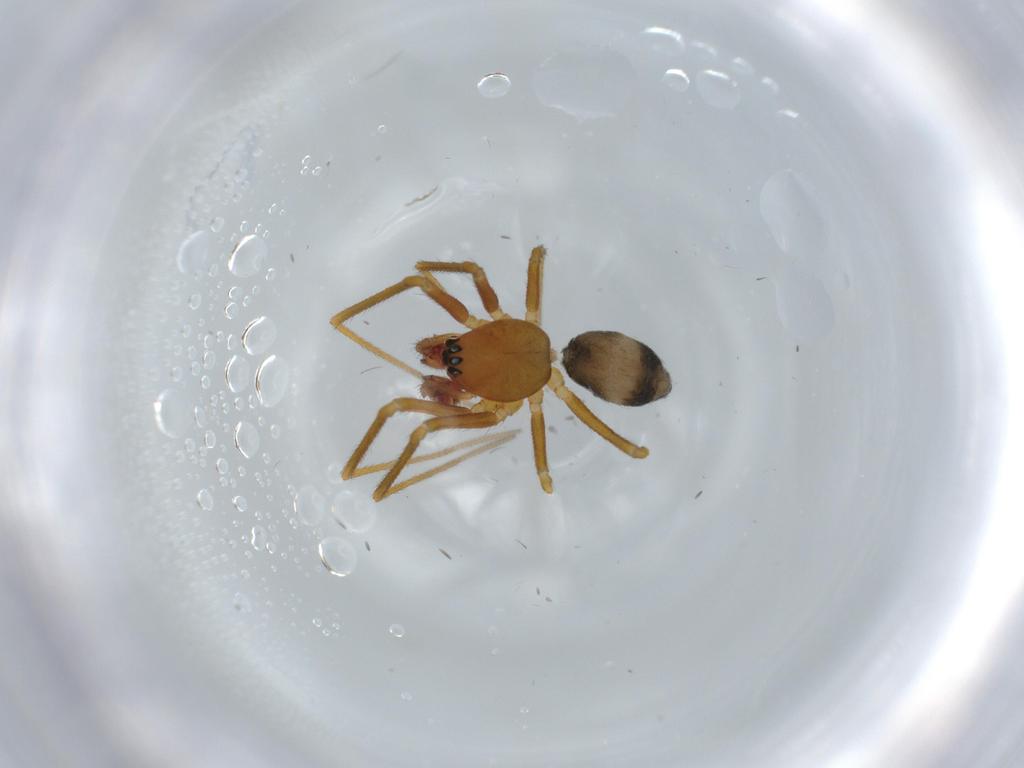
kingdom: Animalia
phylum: Arthropoda
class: Arachnida
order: Araneae
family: Linyphiidae
